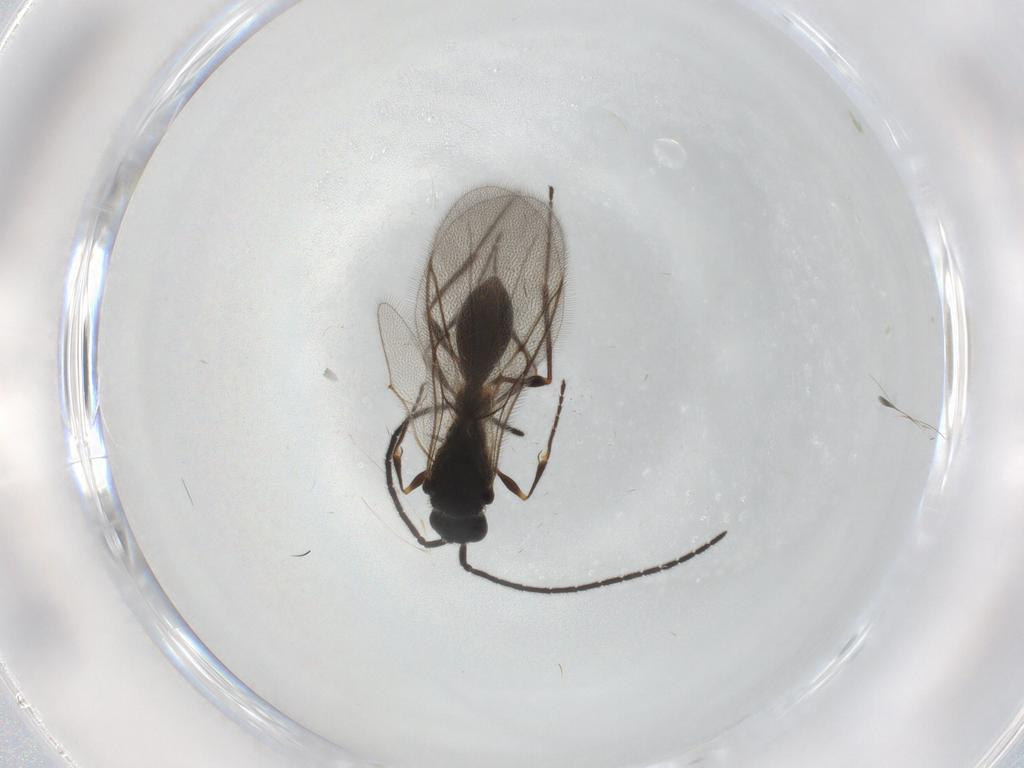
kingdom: Animalia
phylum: Arthropoda
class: Insecta
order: Hymenoptera
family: Diapriidae
